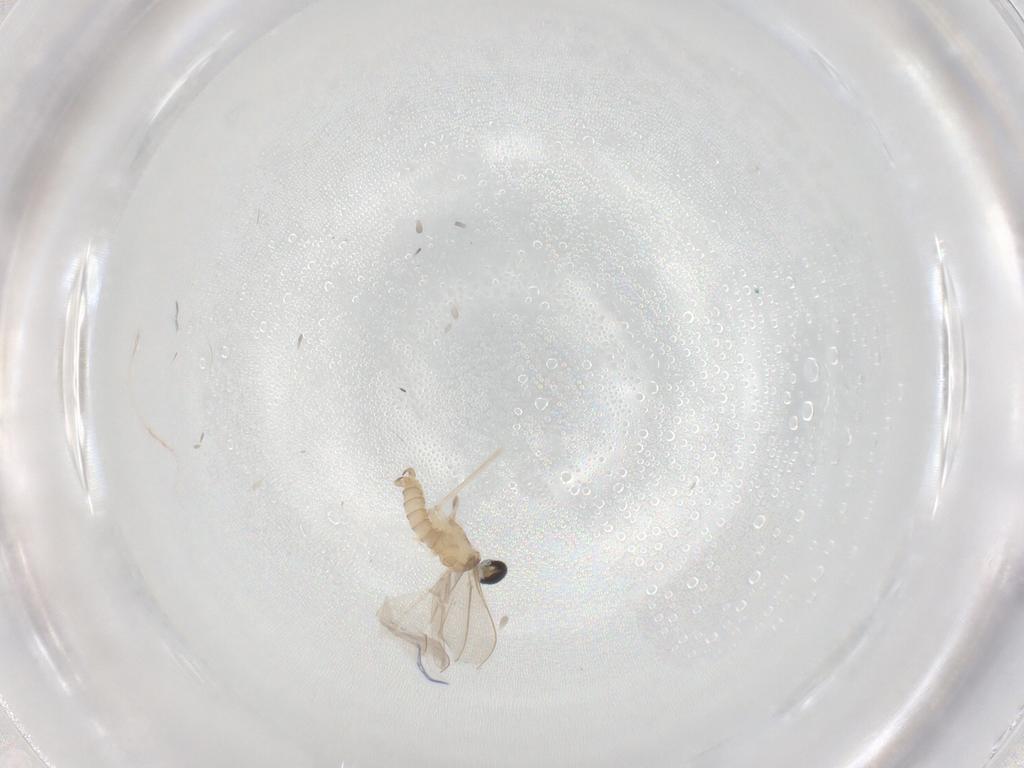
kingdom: Animalia
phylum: Arthropoda
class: Insecta
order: Diptera
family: Cecidomyiidae
